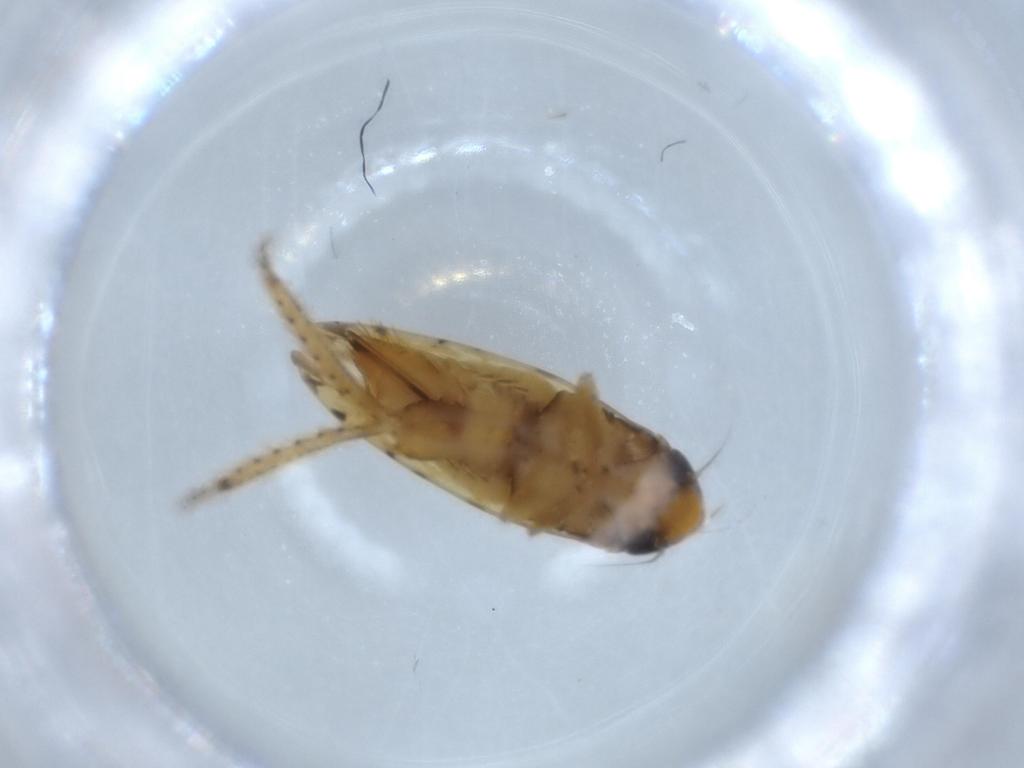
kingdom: Animalia
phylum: Arthropoda
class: Insecta
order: Hemiptera
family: Cicadellidae
